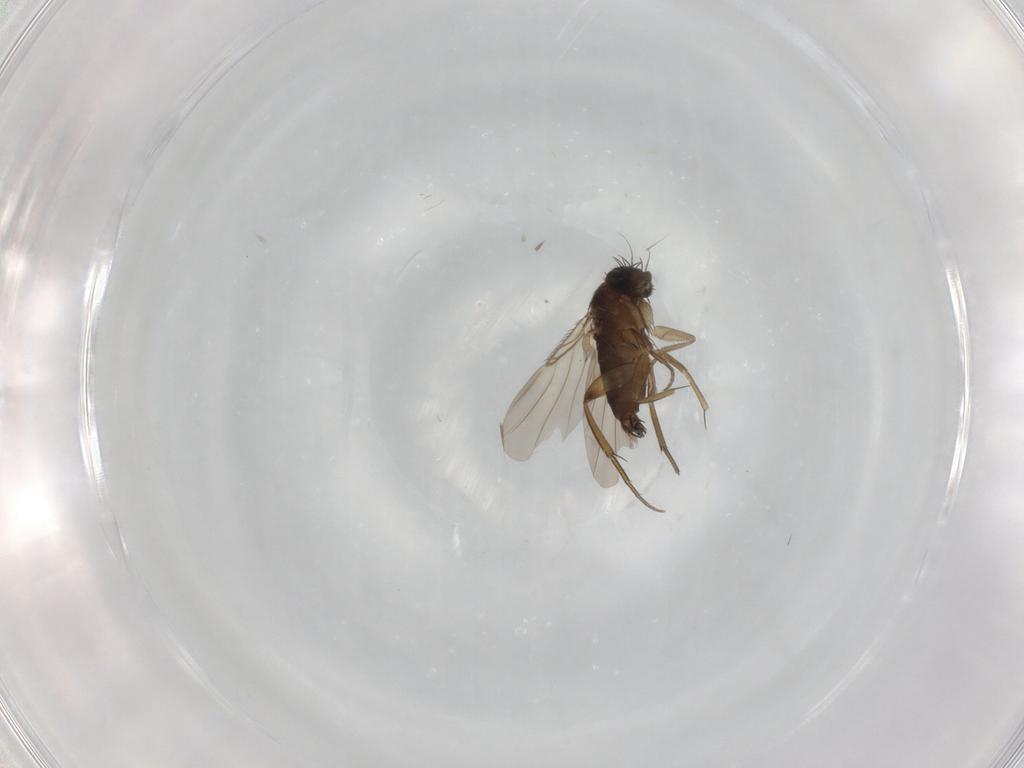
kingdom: Animalia
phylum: Arthropoda
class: Insecta
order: Diptera
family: Phoridae
